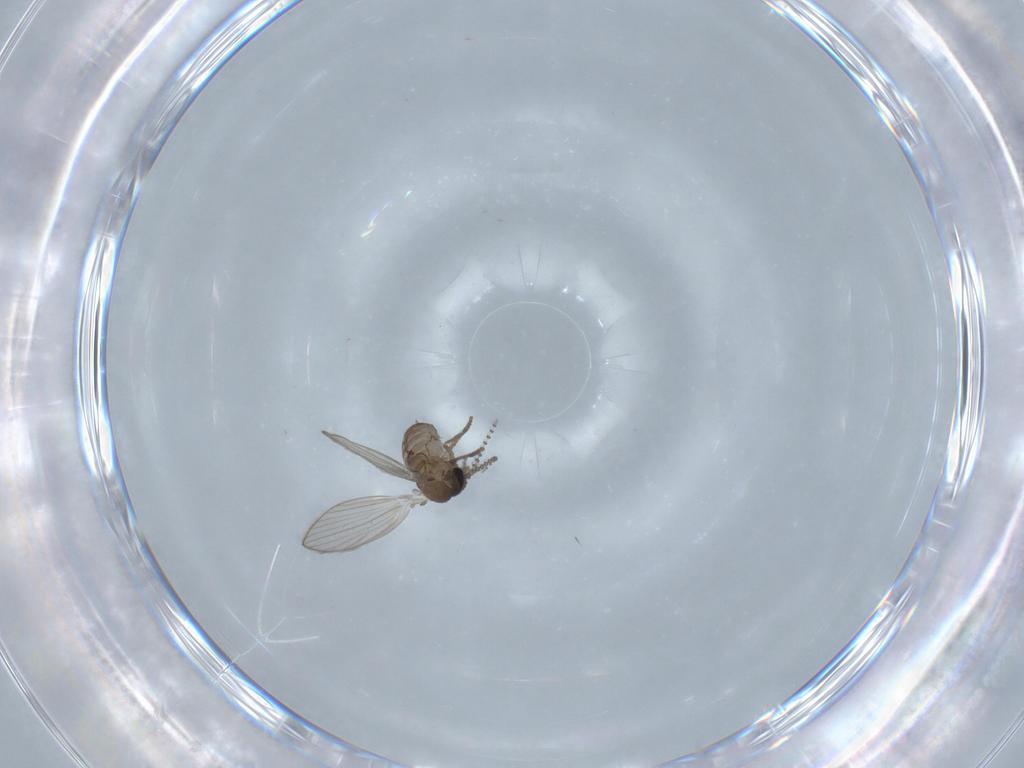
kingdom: Animalia
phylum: Arthropoda
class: Insecta
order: Diptera
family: Psychodidae
